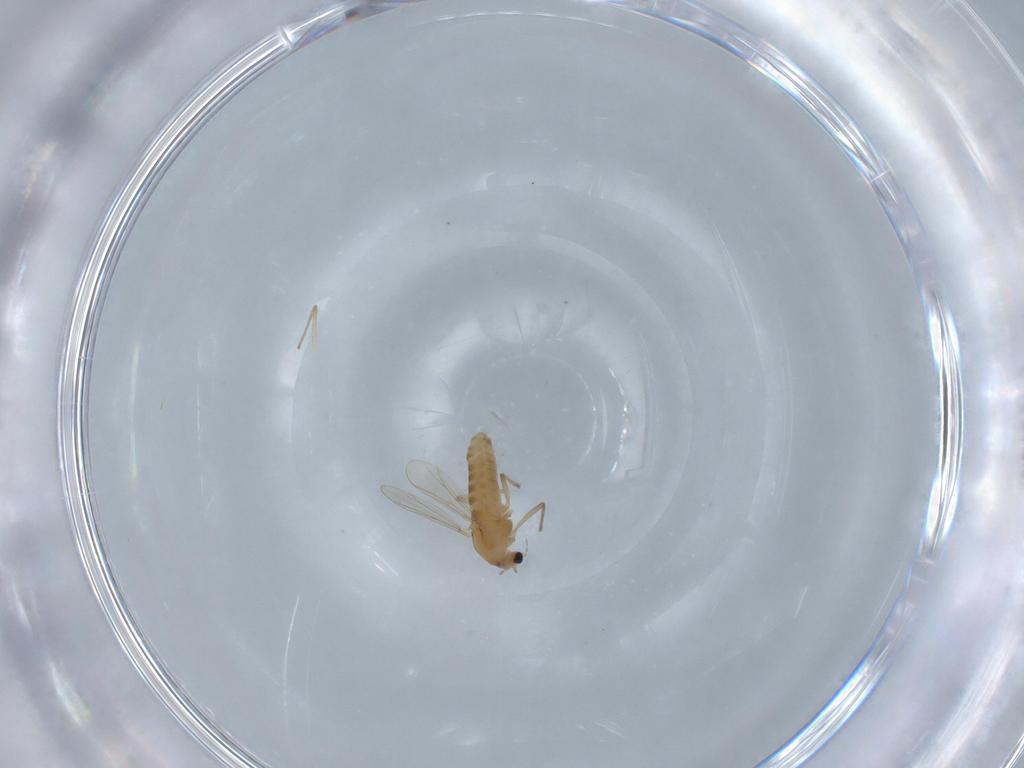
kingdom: Animalia
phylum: Arthropoda
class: Insecta
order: Diptera
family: Chironomidae
